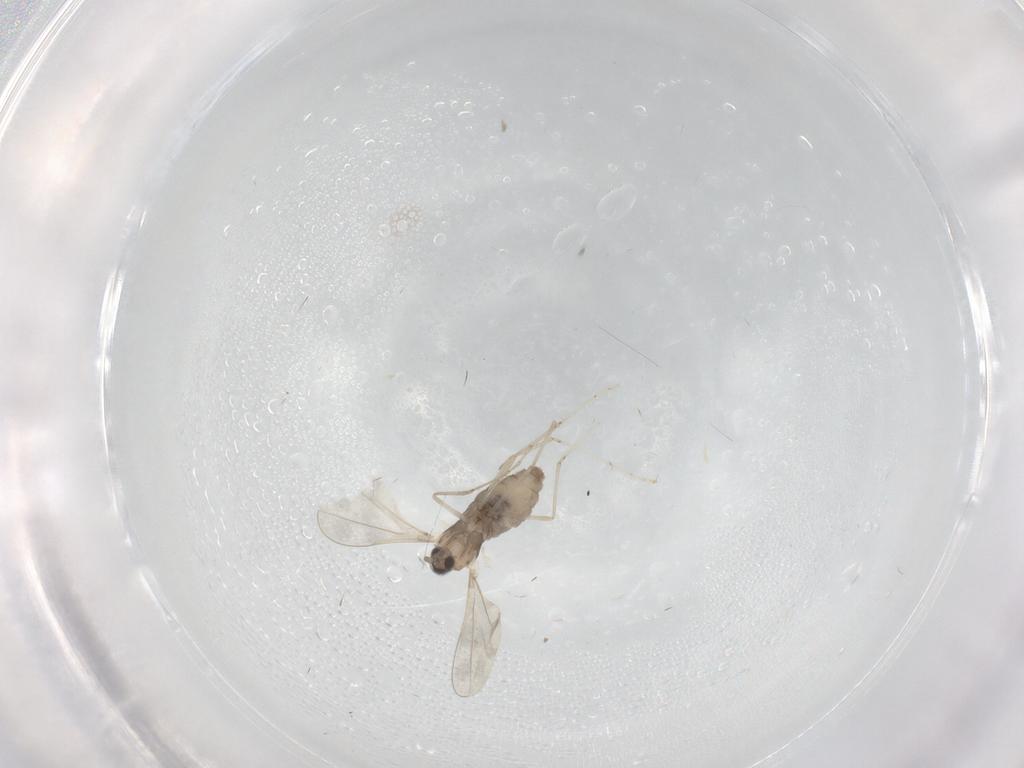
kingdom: Animalia
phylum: Arthropoda
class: Insecta
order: Diptera
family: Cecidomyiidae
